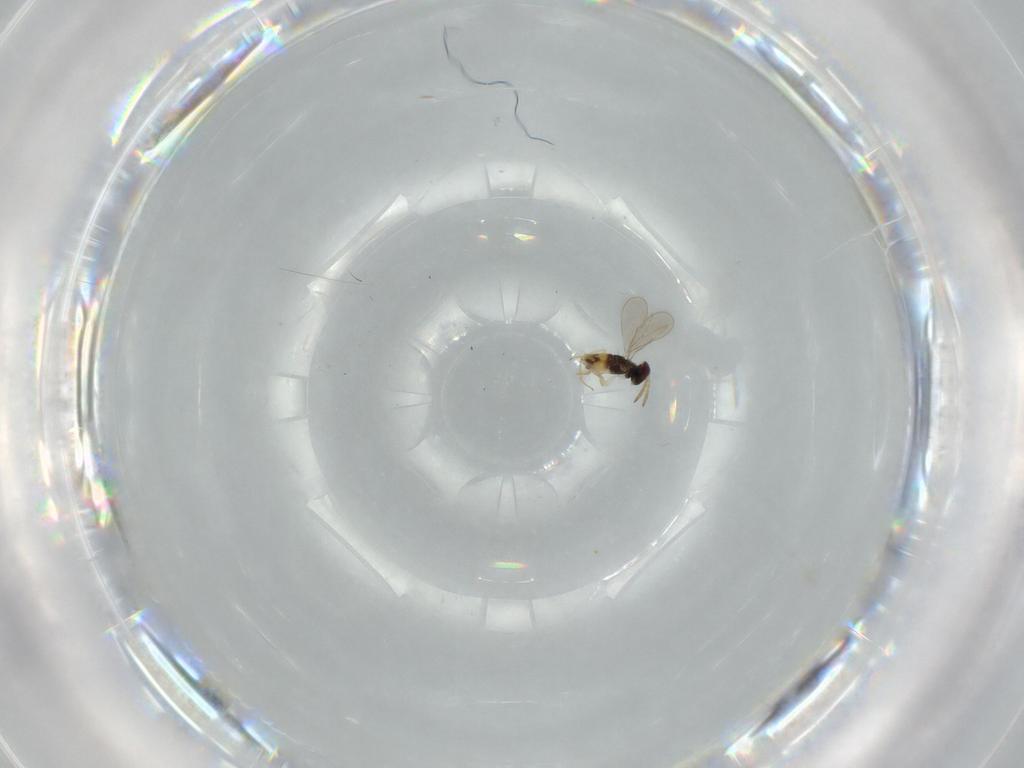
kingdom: Animalia
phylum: Arthropoda
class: Insecta
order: Hymenoptera
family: Aphelinidae
